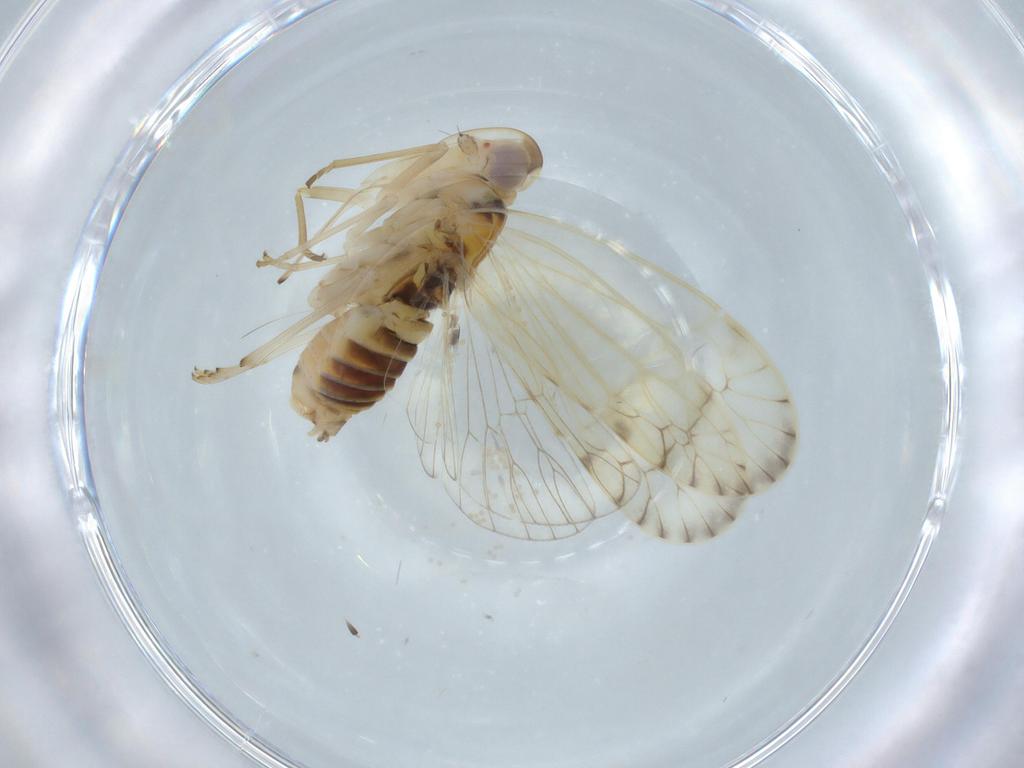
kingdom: Animalia
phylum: Arthropoda
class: Insecta
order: Hemiptera
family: Kinnaridae
